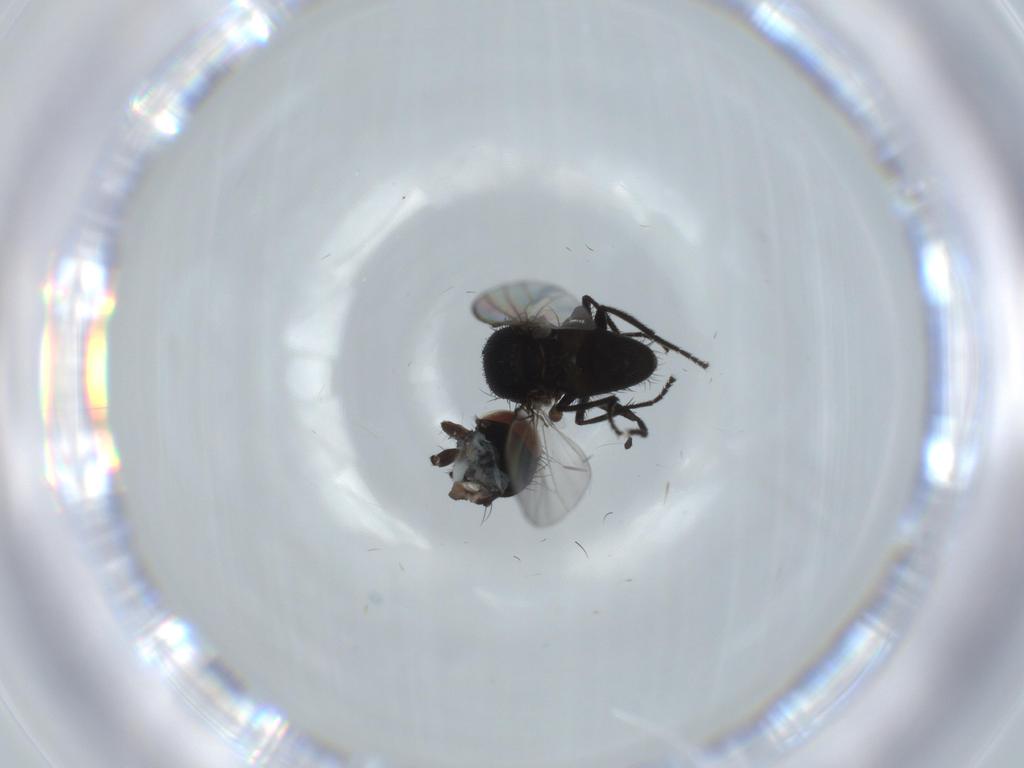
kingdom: Animalia
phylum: Arthropoda
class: Insecta
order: Diptera
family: Milichiidae
